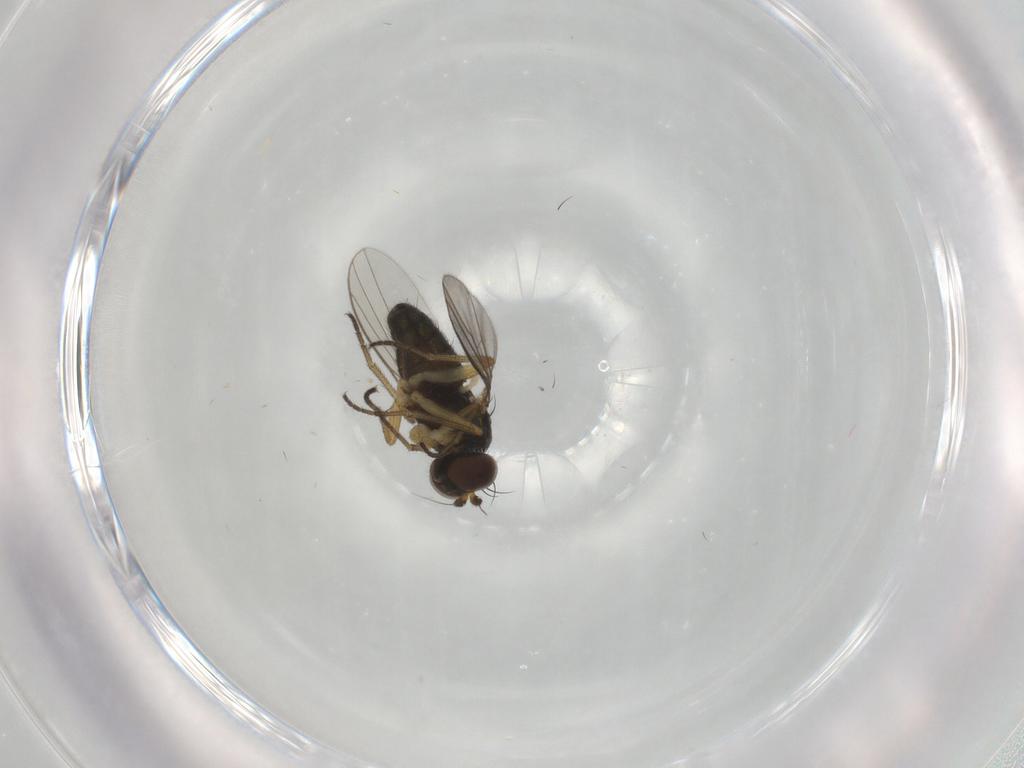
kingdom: Animalia
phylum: Arthropoda
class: Insecta
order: Diptera
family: Dolichopodidae
